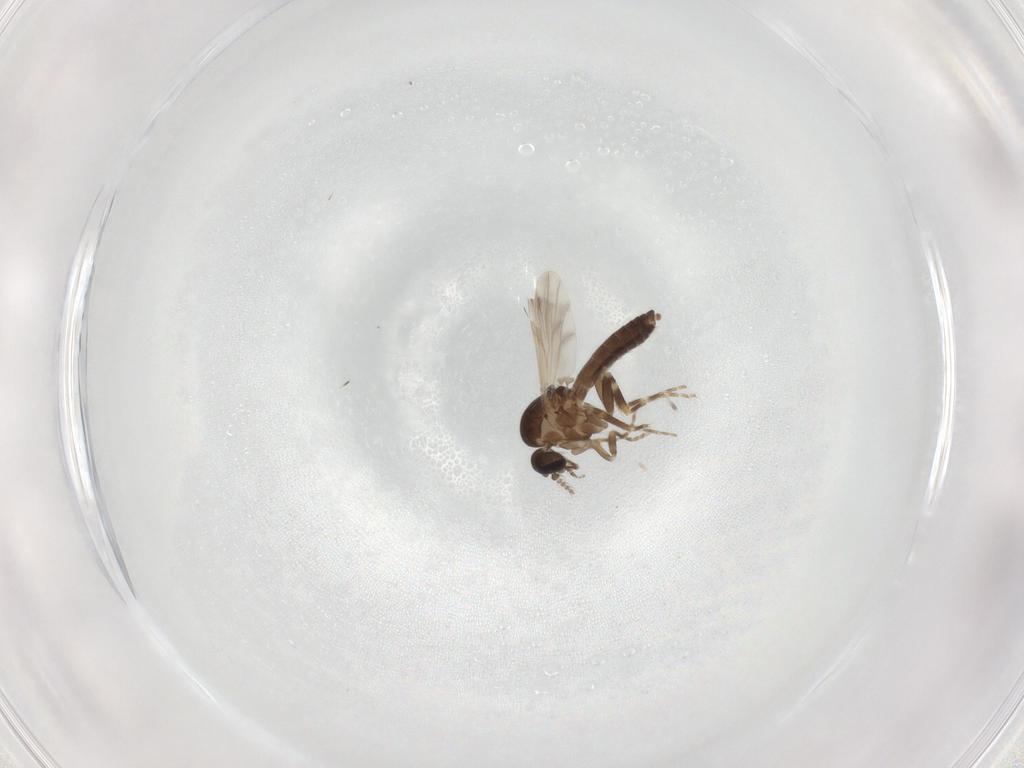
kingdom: Animalia
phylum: Arthropoda
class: Insecta
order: Diptera
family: Ceratopogonidae
